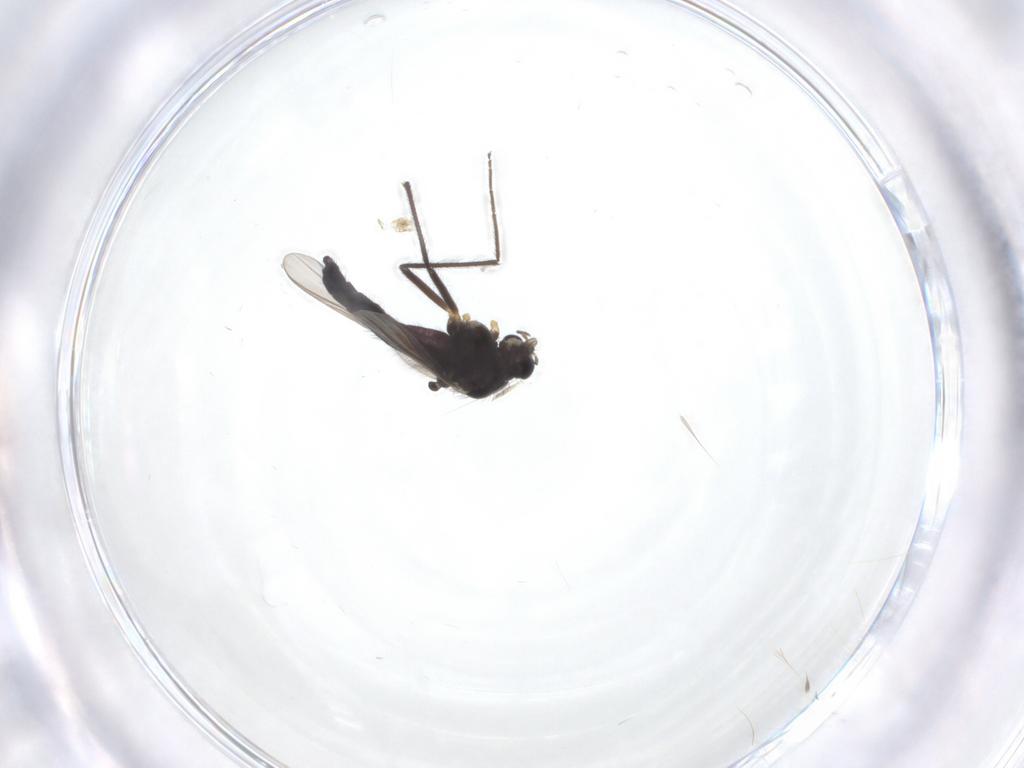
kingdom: Animalia
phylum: Arthropoda
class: Insecta
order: Diptera
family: Chironomidae
